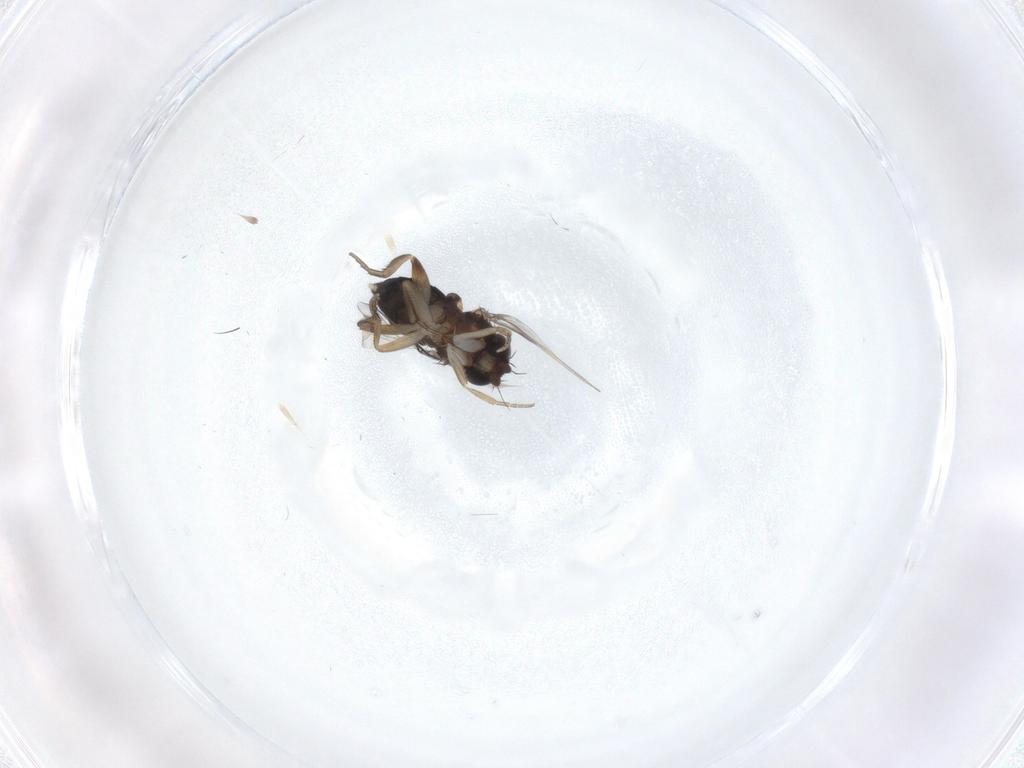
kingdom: Animalia
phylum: Arthropoda
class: Insecta
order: Diptera
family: Phoridae
